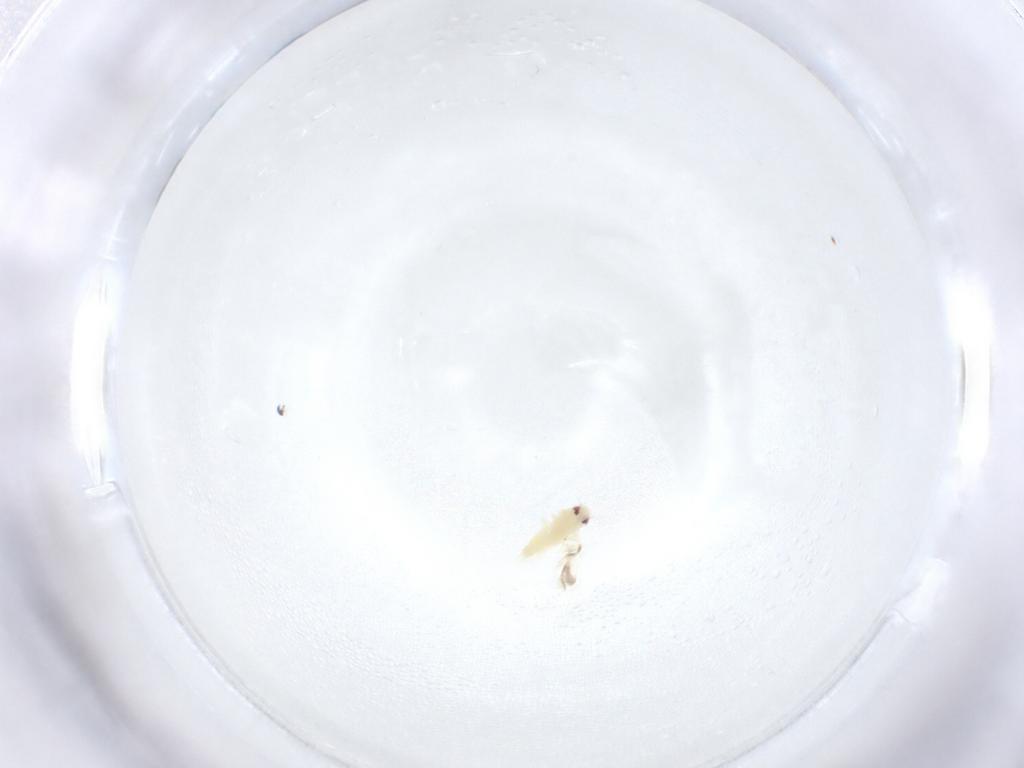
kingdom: Animalia
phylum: Arthropoda
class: Insecta
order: Hemiptera
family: Aleyrodidae
